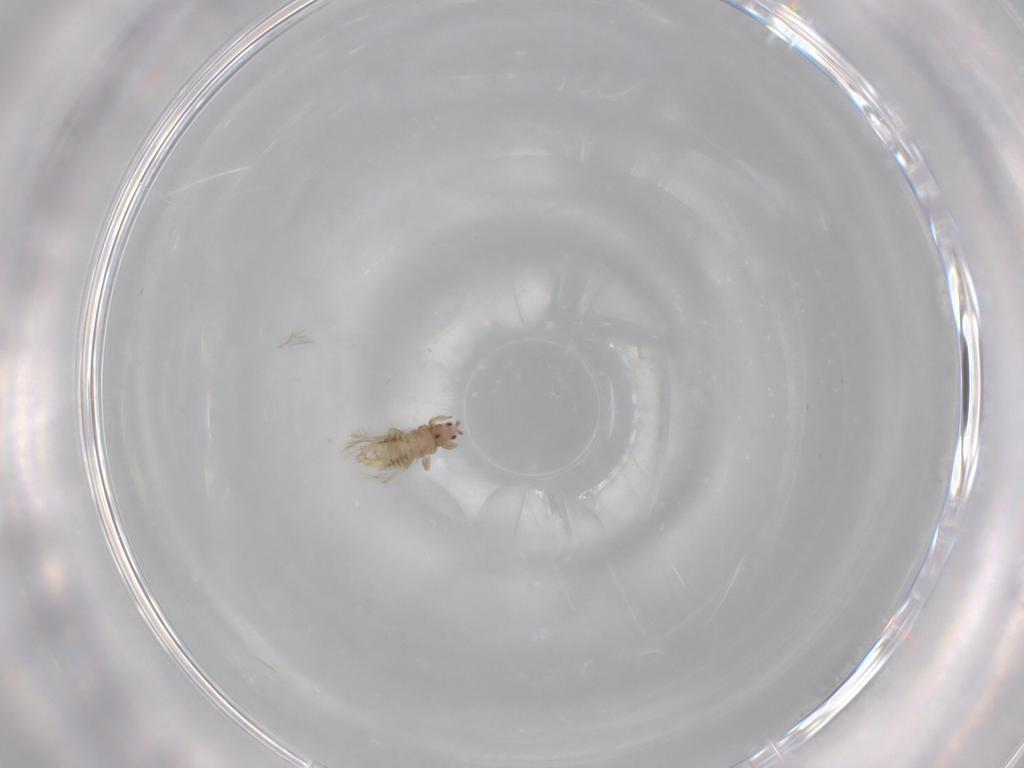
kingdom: Animalia
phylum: Arthropoda
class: Insecta
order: Thysanoptera
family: Thripidae
